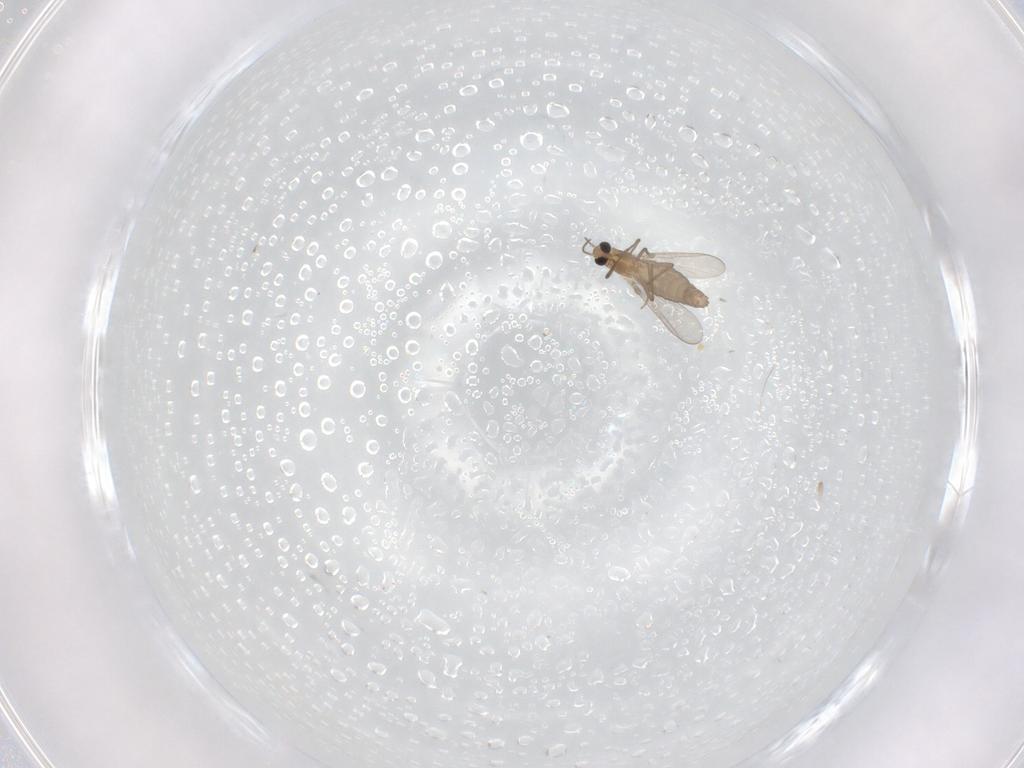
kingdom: Animalia
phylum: Arthropoda
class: Insecta
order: Diptera
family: Chironomidae
